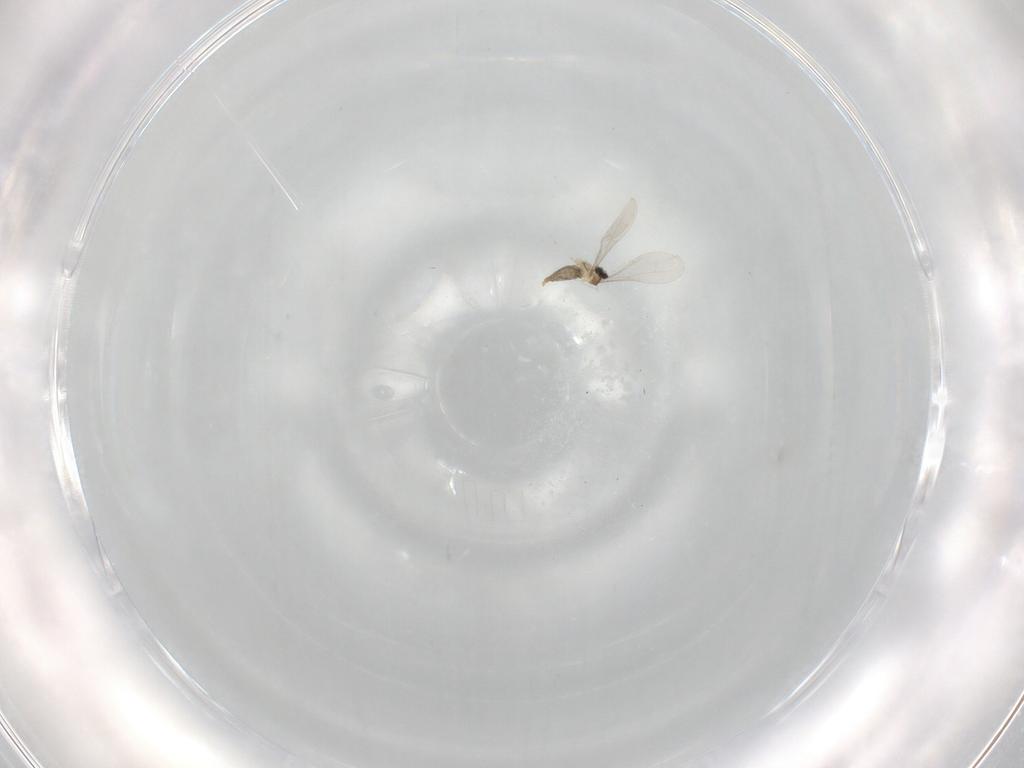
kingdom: Animalia
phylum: Arthropoda
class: Insecta
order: Diptera
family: Cecidomyiidae
